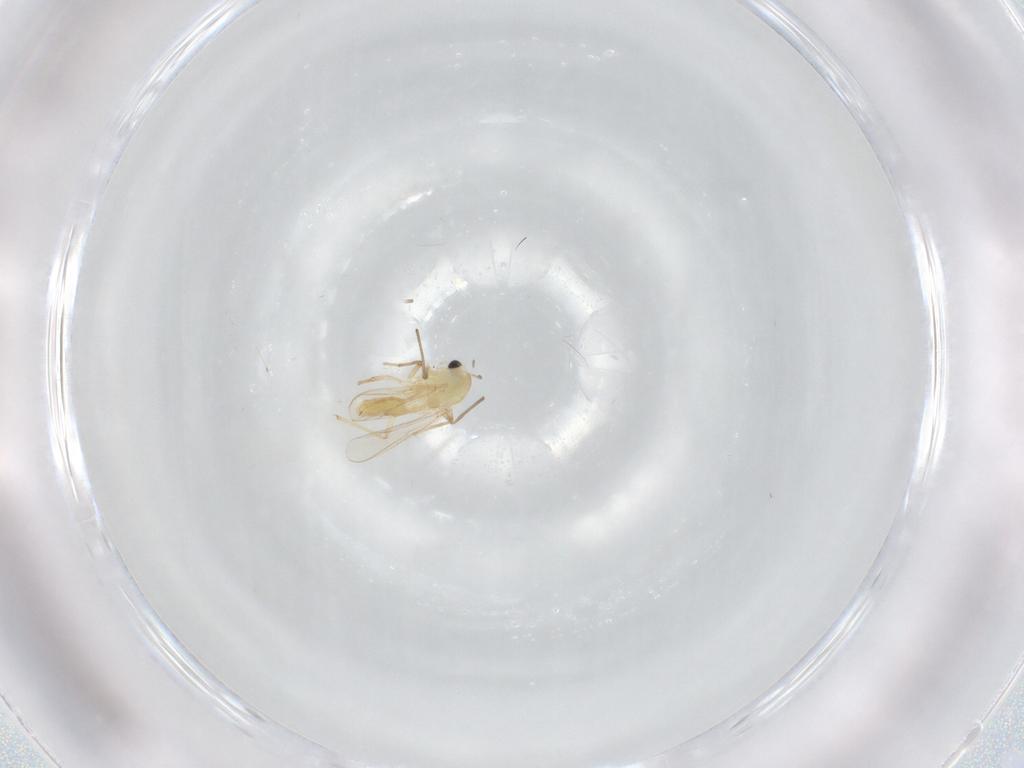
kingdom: Animalia
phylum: Arthropoda
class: Insecta
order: Diptera
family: Chironomidae
